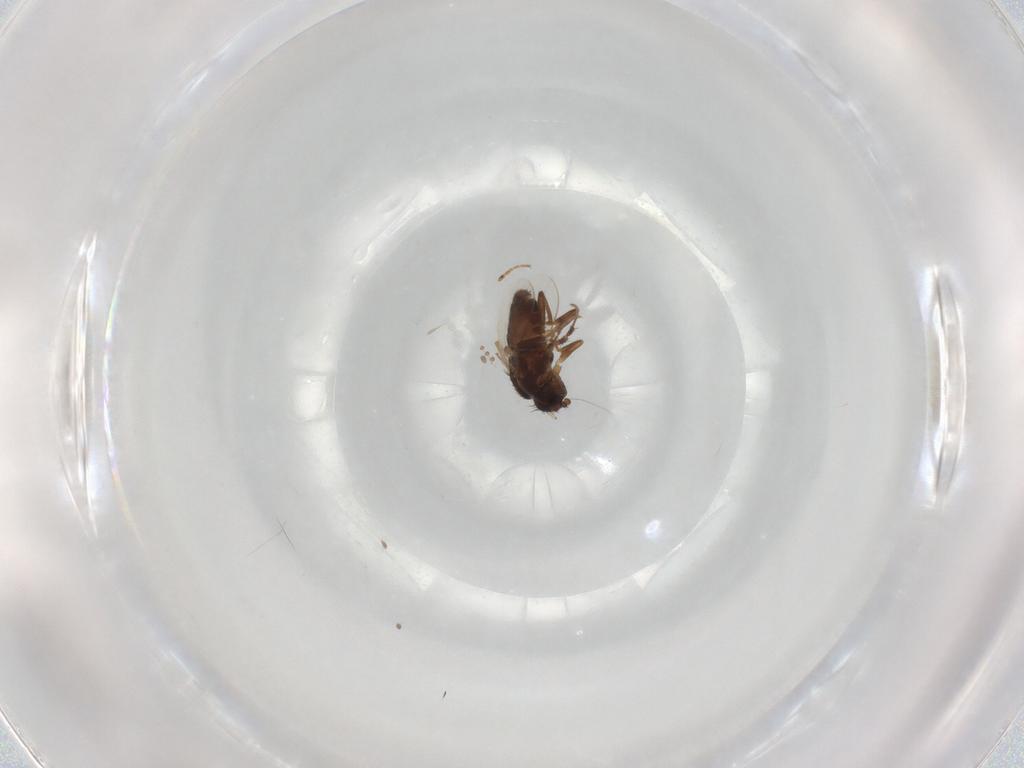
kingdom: Animalia
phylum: Arthropoda
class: Insecta
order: Diptera
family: Sphaeroceridae
